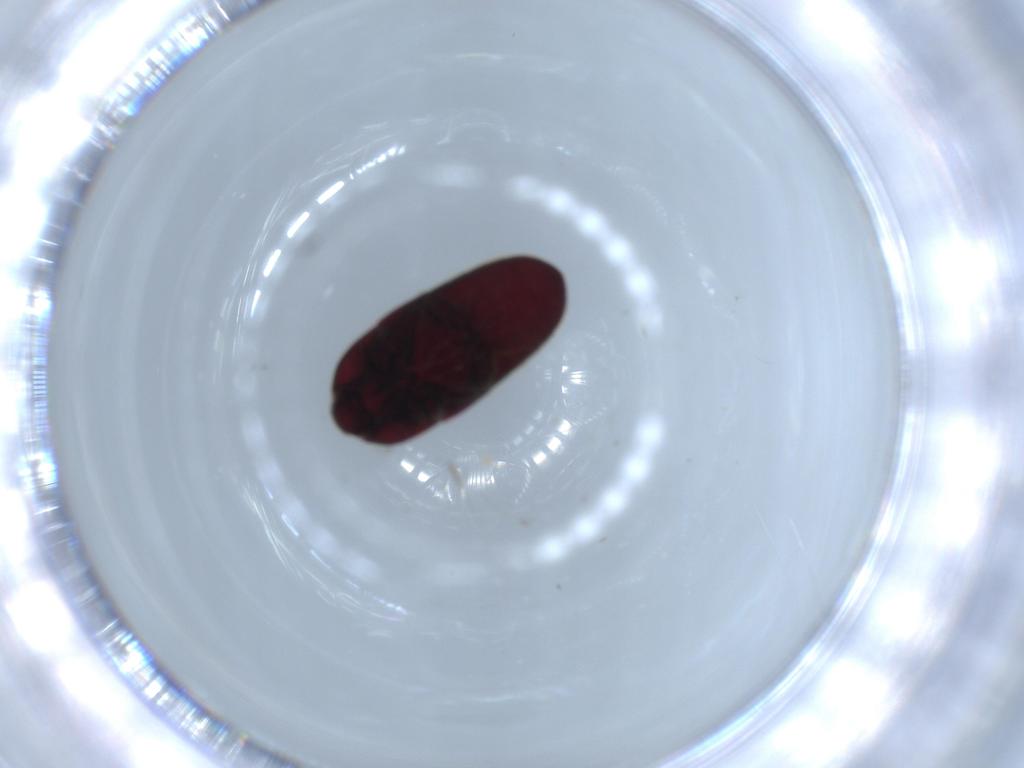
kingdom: Animalia
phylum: Arthropoda
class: Insecta
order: Coleoptera
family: Throscidae
